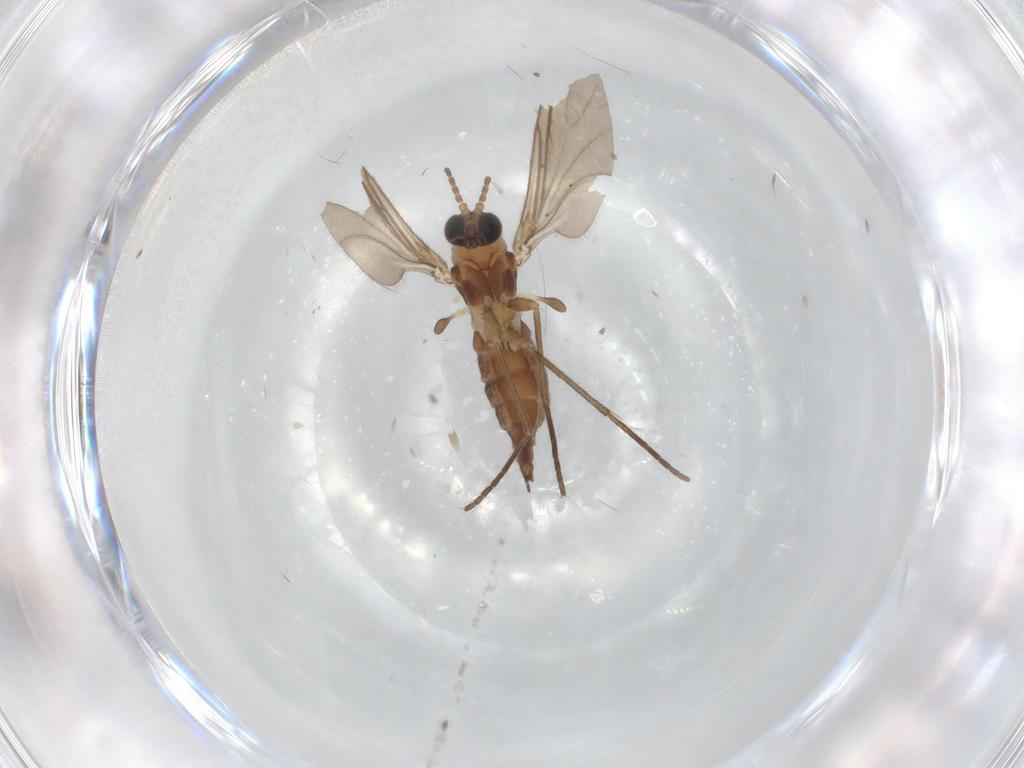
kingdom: Animalia
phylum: Arthropoda
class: Insecta
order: Diptera
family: Sciaridae
